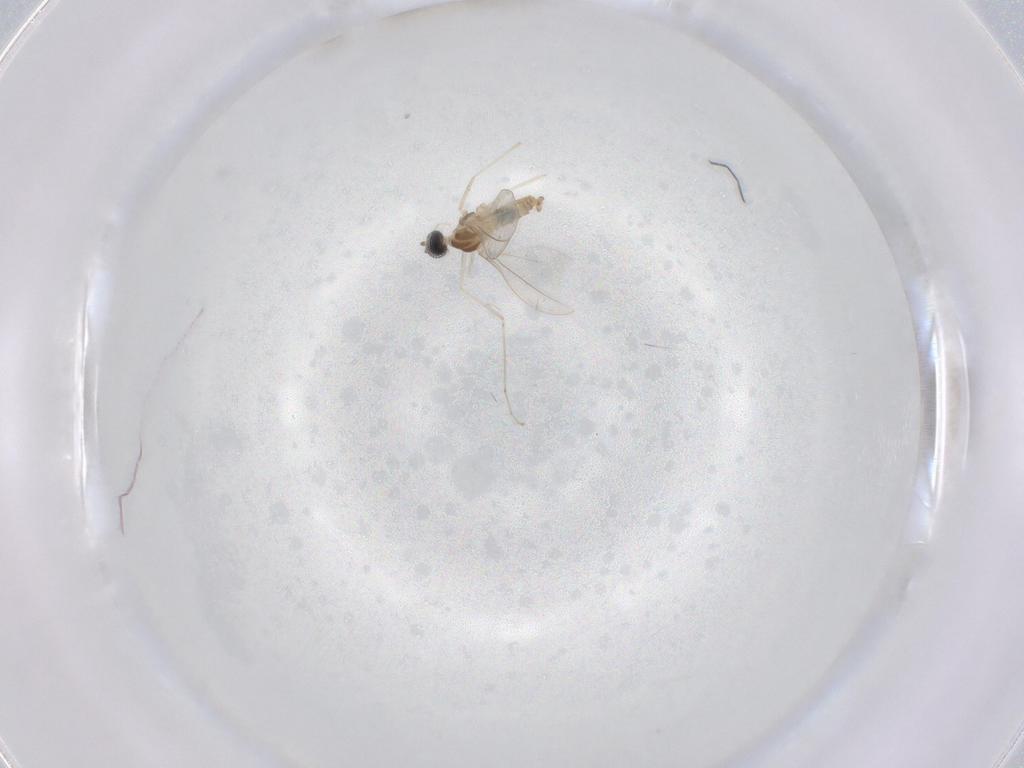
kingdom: Animalia
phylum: Arthropoda
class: Insecta
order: Diptera
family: Cecidomyiidae
